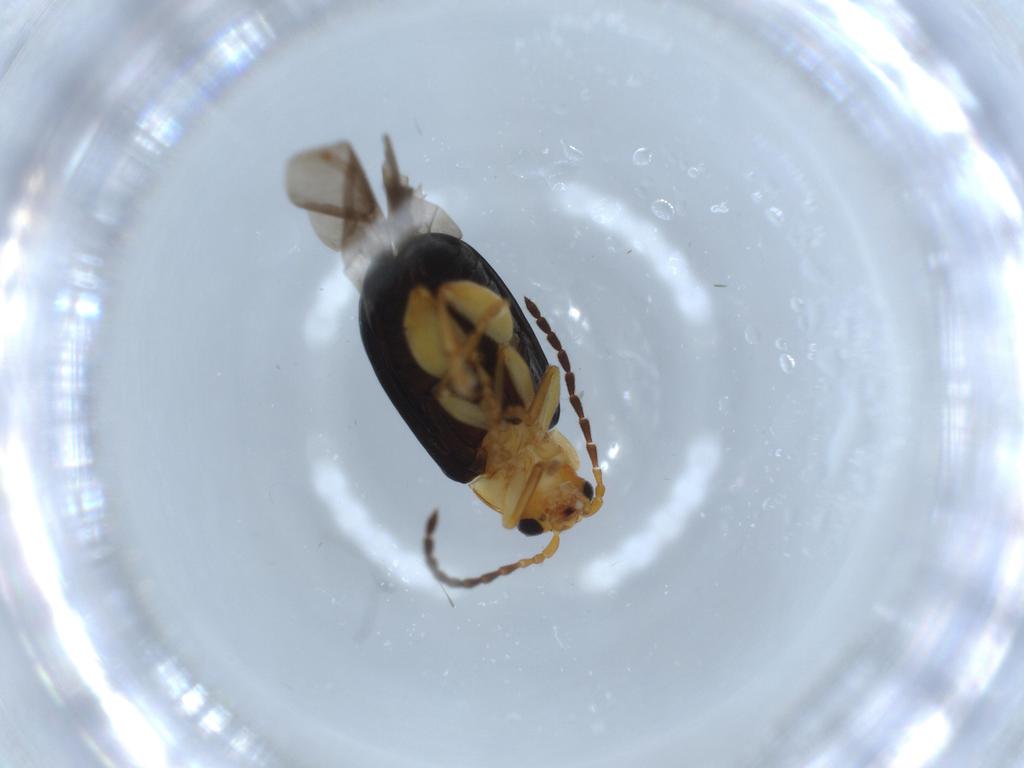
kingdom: Animalia
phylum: Arthropoda
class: Insecta
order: Coleoptera
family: Chrysomelidae
